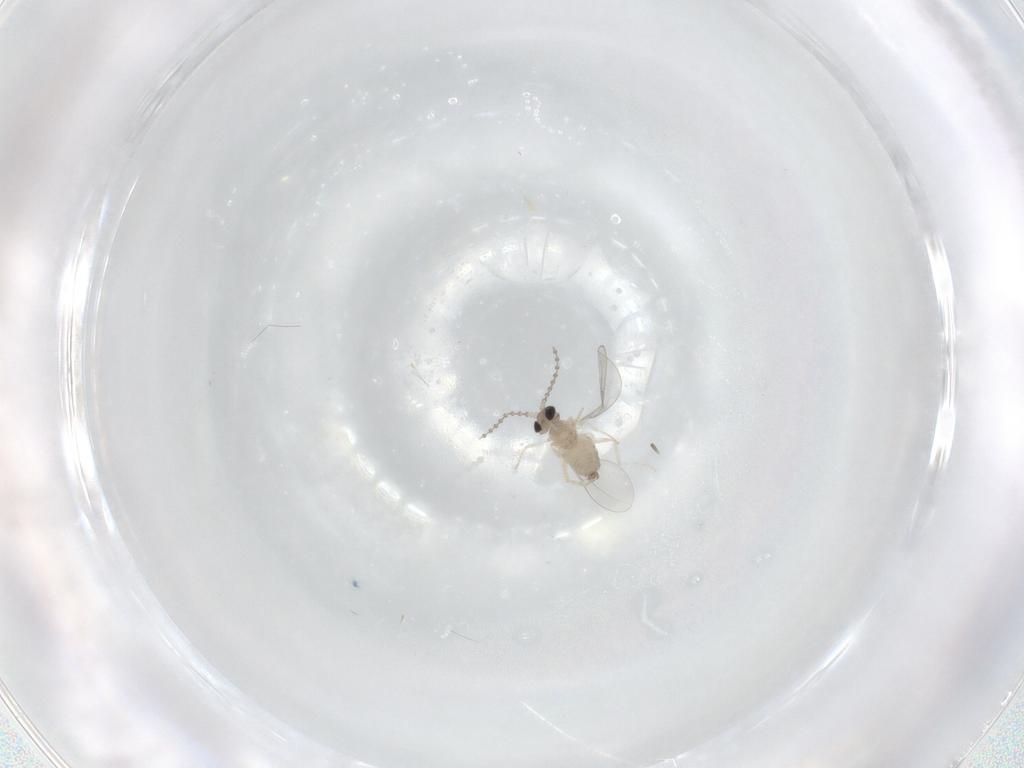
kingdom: Animalia
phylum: Arthropoda
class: Insecta
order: Diptera
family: Cecidomyiidae
